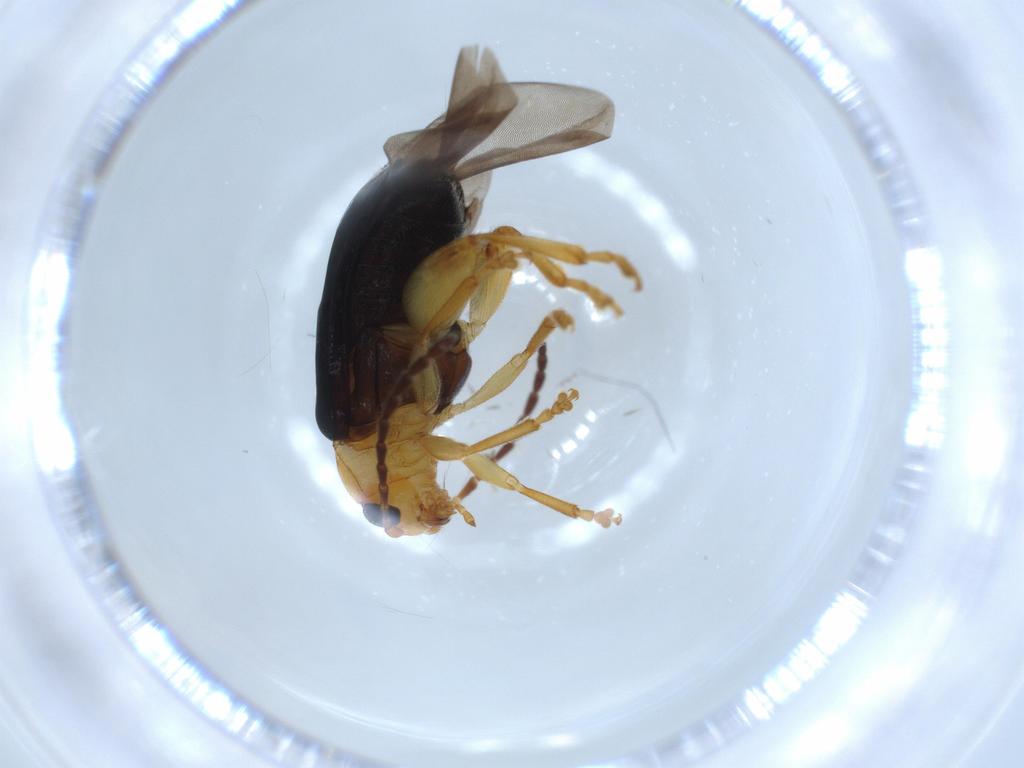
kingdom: Animalia
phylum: Arthropoda
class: Insecta
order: Coleoptera
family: Chrysomelidae
